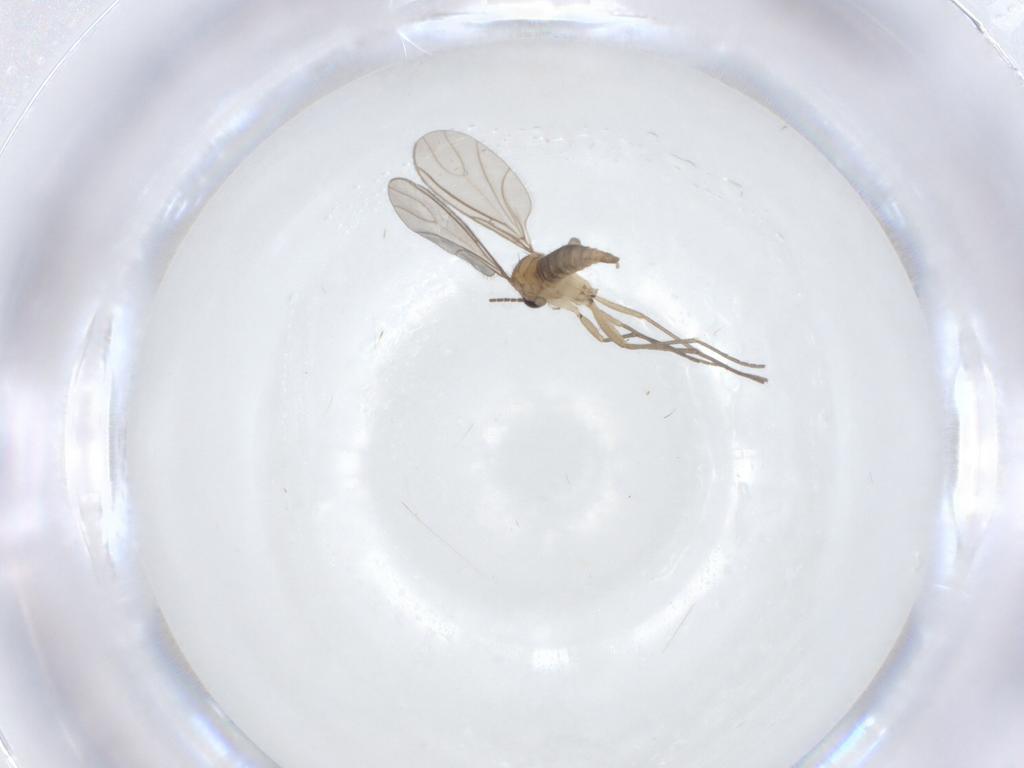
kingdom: Animalia
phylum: Arthropoda
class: Insecta
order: Diptera
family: Sciaridae
